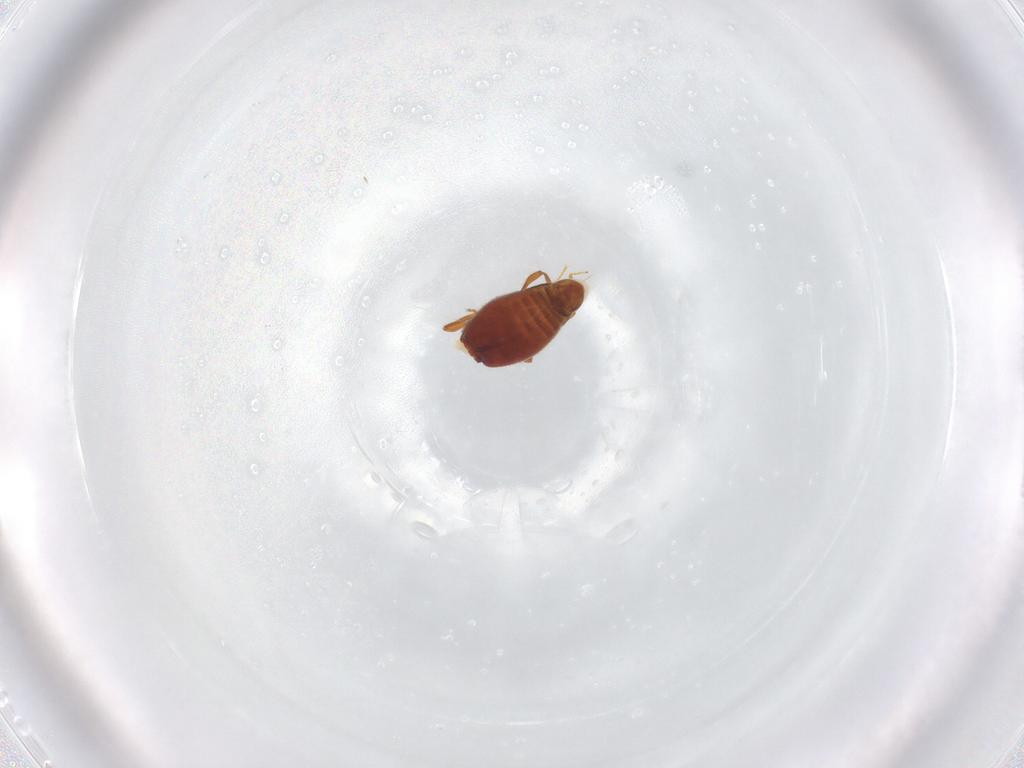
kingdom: Animalia
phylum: Arthropoda
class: Insecta
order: Coleoptera
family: Staphylinidae
